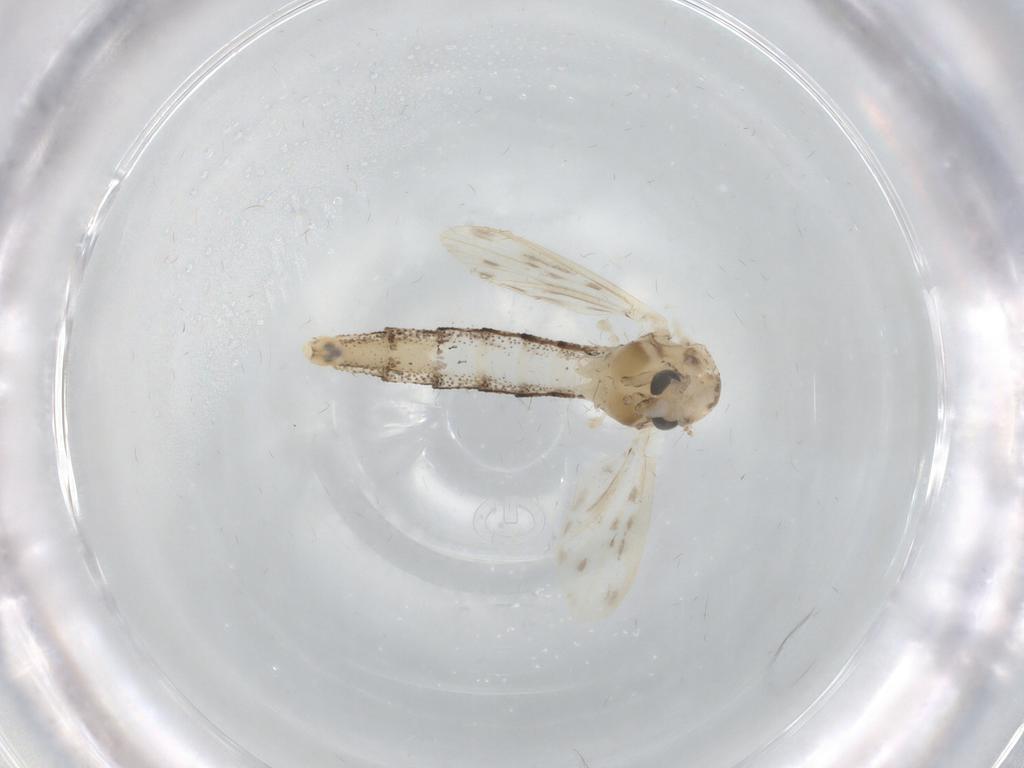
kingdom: Animalia
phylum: Arthropoda
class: Insecta
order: Diptera
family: Chaoboridae
